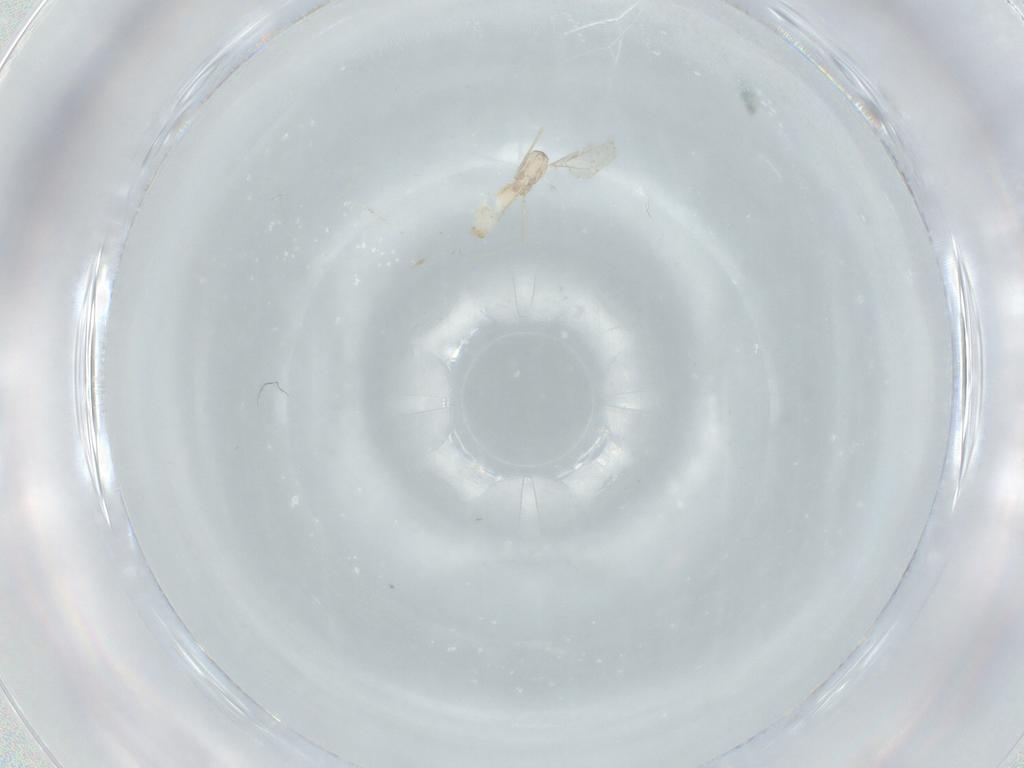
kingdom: Animalia
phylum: Arthropoda
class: Insecta
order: Diptera
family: Cecidomyiidae
